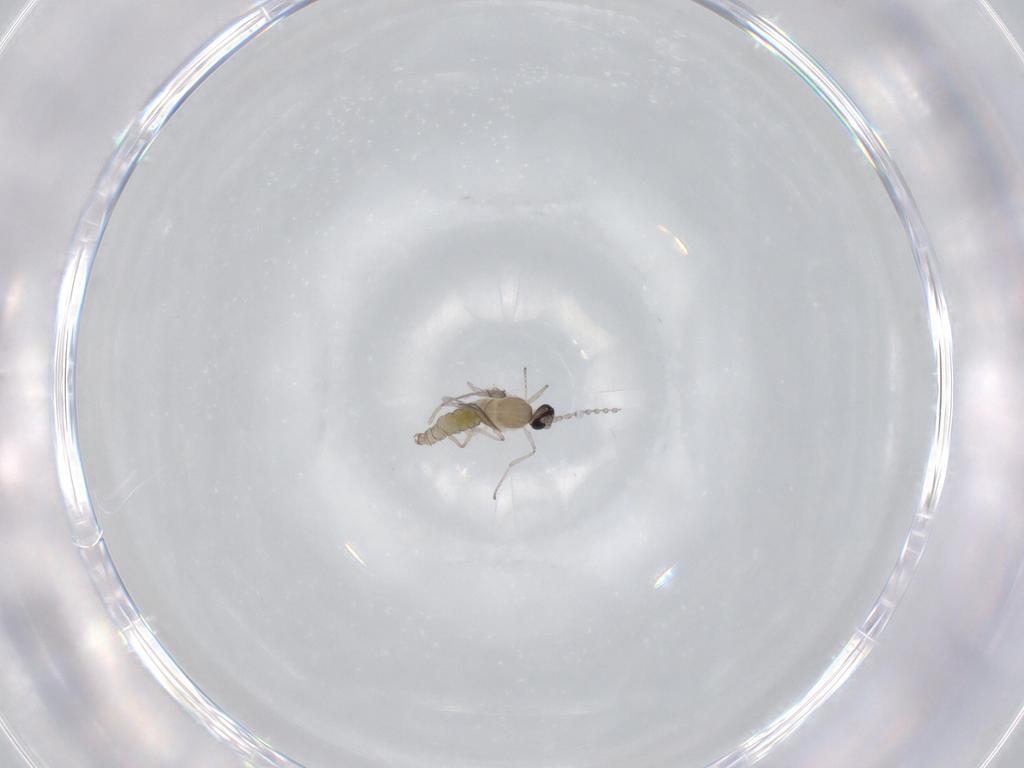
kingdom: Animalia
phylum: Arthropoda
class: Insecta
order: Diptera
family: Cecidomyiidae
